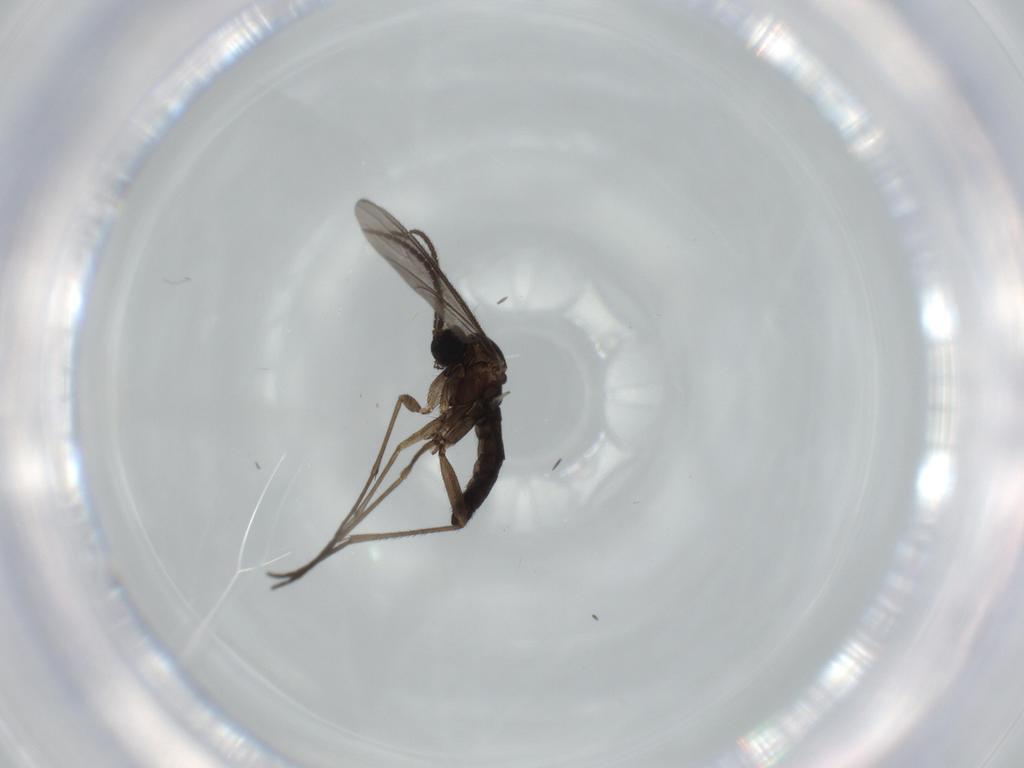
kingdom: Animalia
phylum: Arthropoda
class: Insecta
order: Diptera
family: Sciaridae
